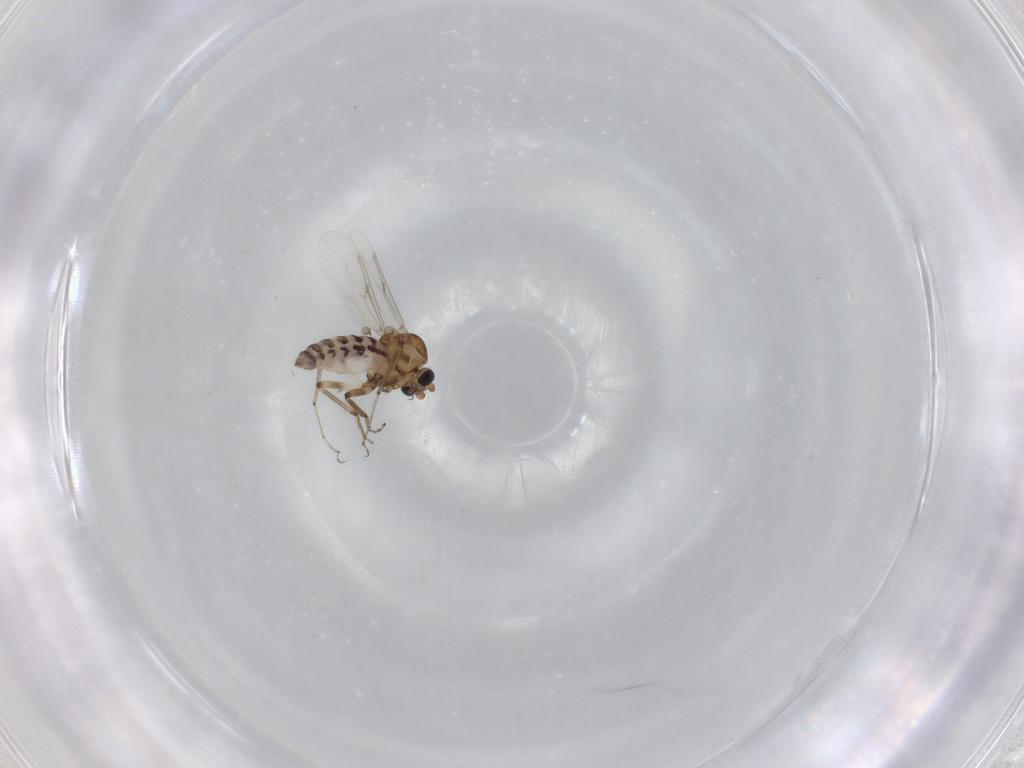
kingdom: Animalia
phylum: Arthropoda
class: Insecta
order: Diptera
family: Ceratopogonidae
